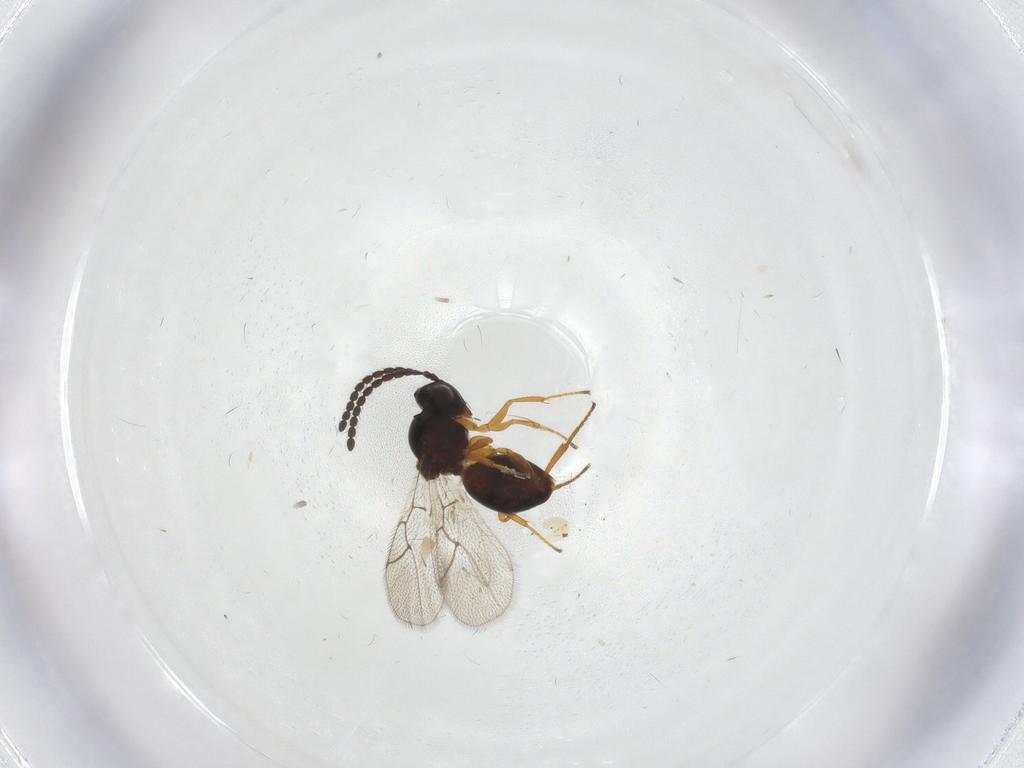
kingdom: Animalia
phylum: Arthropoda
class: Insecta
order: Hymenoptera
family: Figitidae
